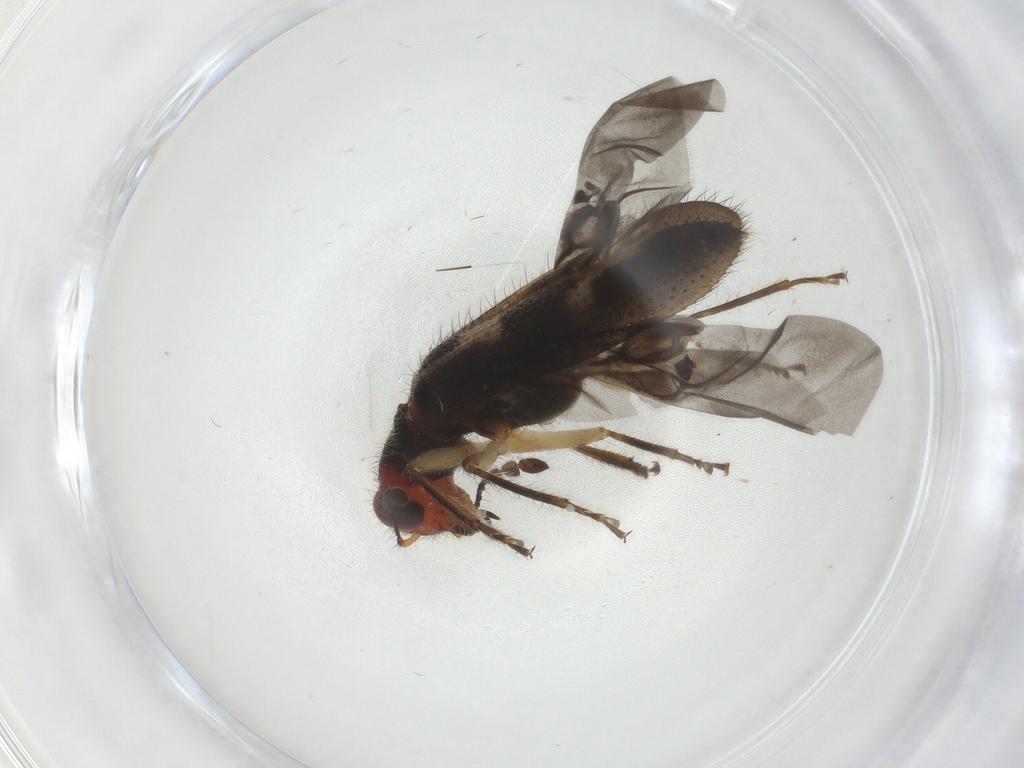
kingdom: Animalia
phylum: Arthropoda
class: Insecta
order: Coleoptera
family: Cleridae
